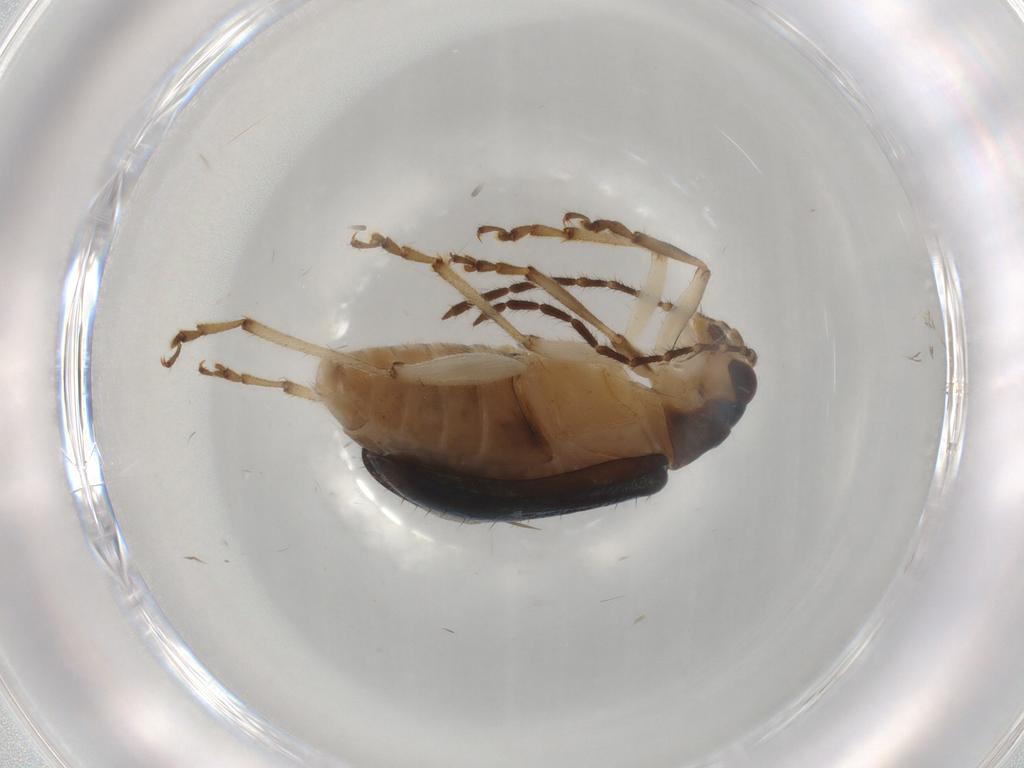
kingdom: Animalia
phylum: Arthropoda
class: Insecta
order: Coleoptera
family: Chrysomelidae
